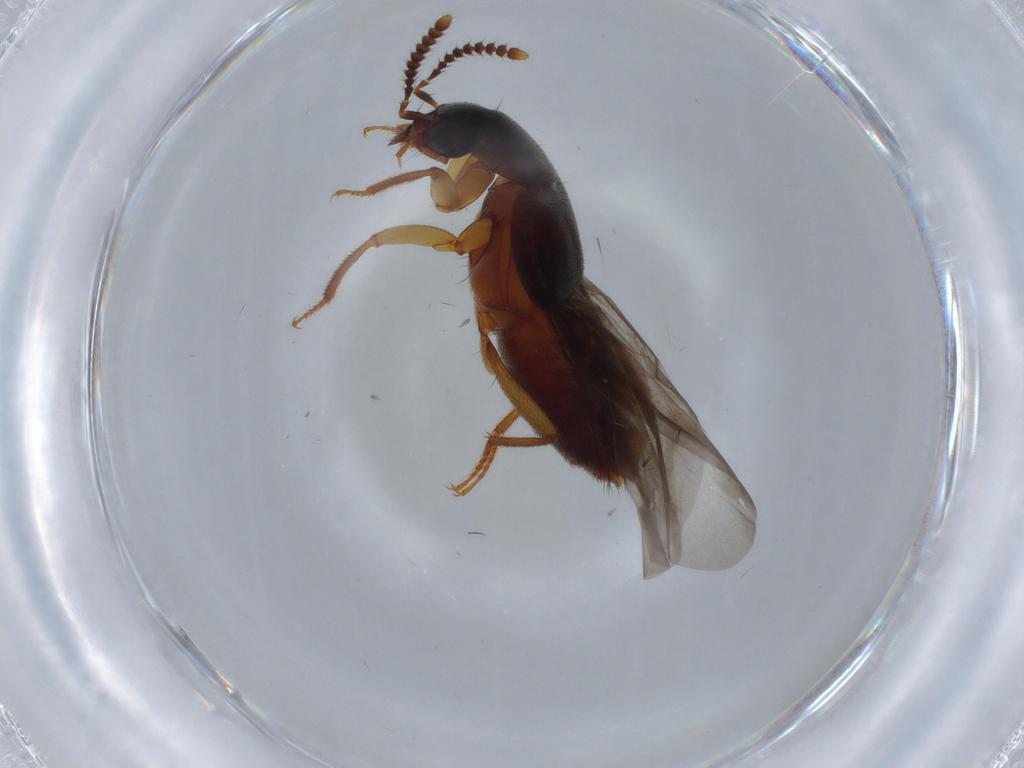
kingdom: Animalia
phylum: Arthropoda
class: Insecta
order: Coleoptera
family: Staphylinidae
